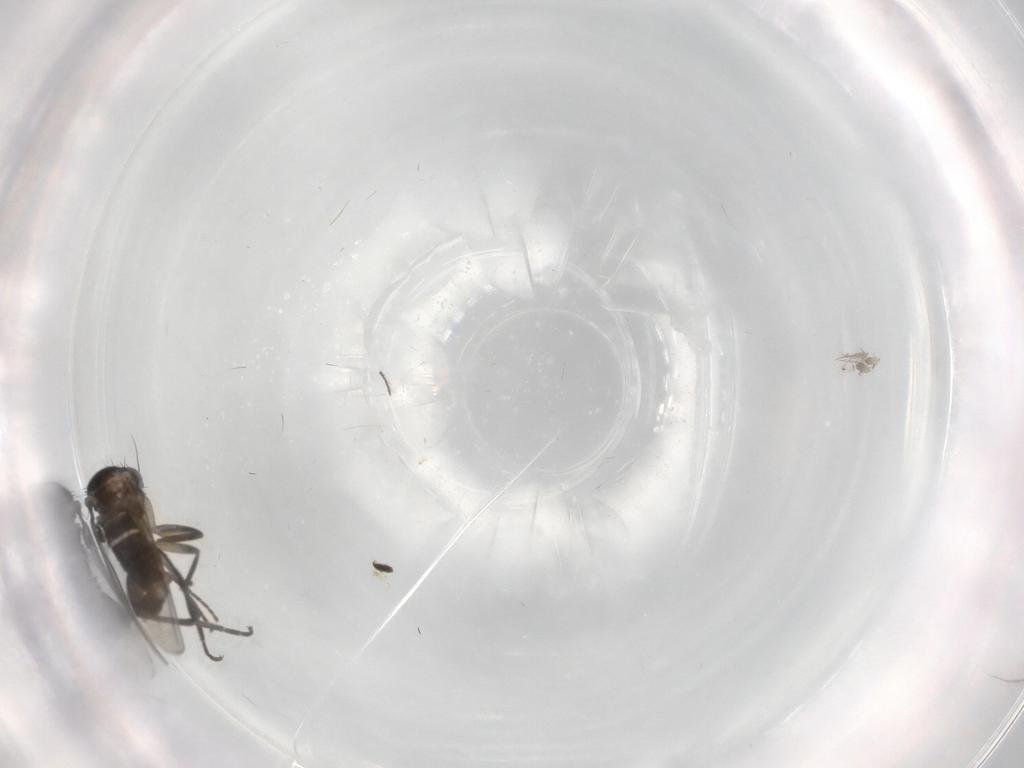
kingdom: Animalia
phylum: Arthropoda
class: Insecta
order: Diptera
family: Phoridae
